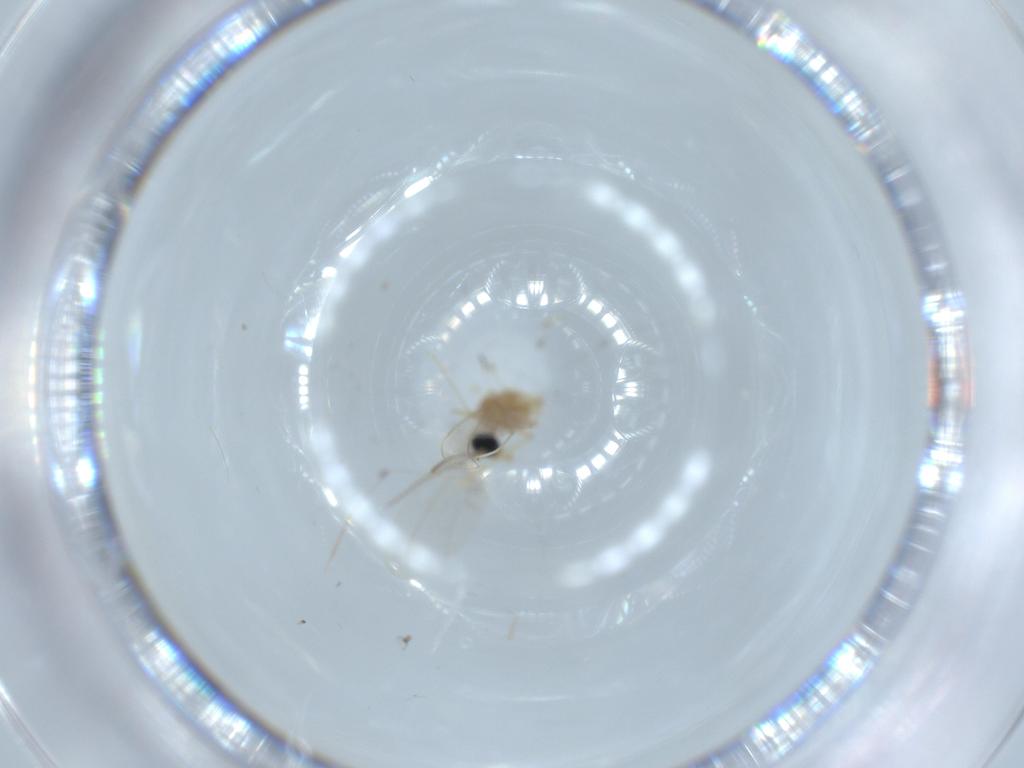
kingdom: Animalia
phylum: Arthropoda
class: Insecta
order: Diptera
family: Cecidomyiidae
